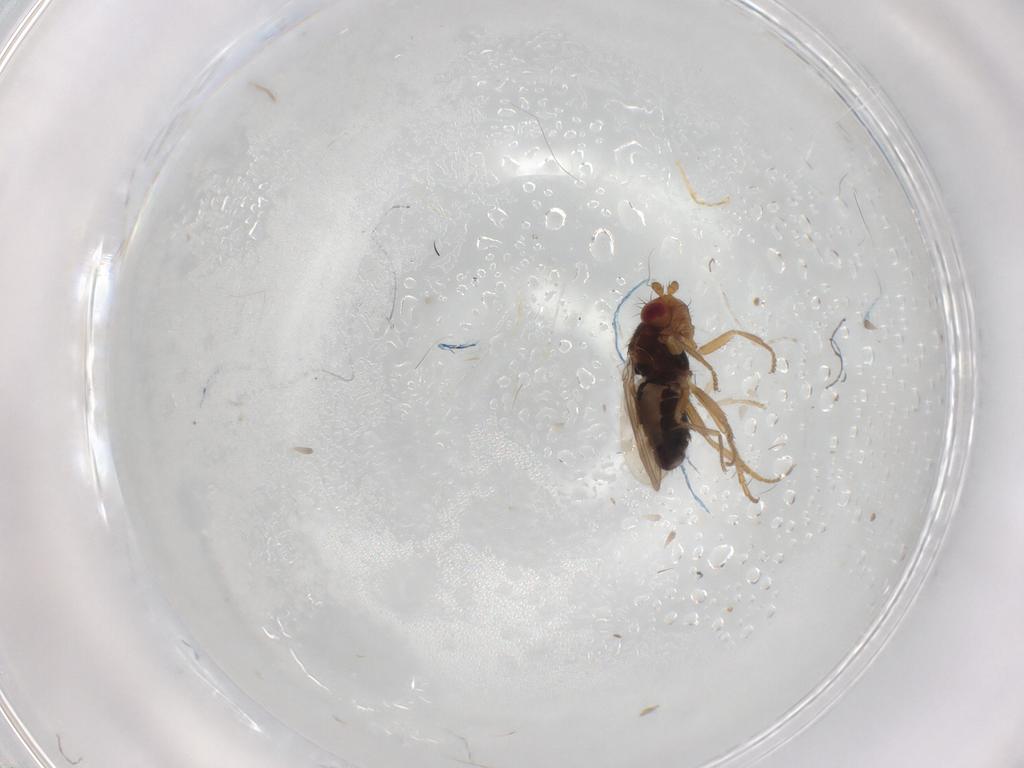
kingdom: Animalia
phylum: Arthropoda
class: Insecta
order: Diptera
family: Sphaeroceridae
